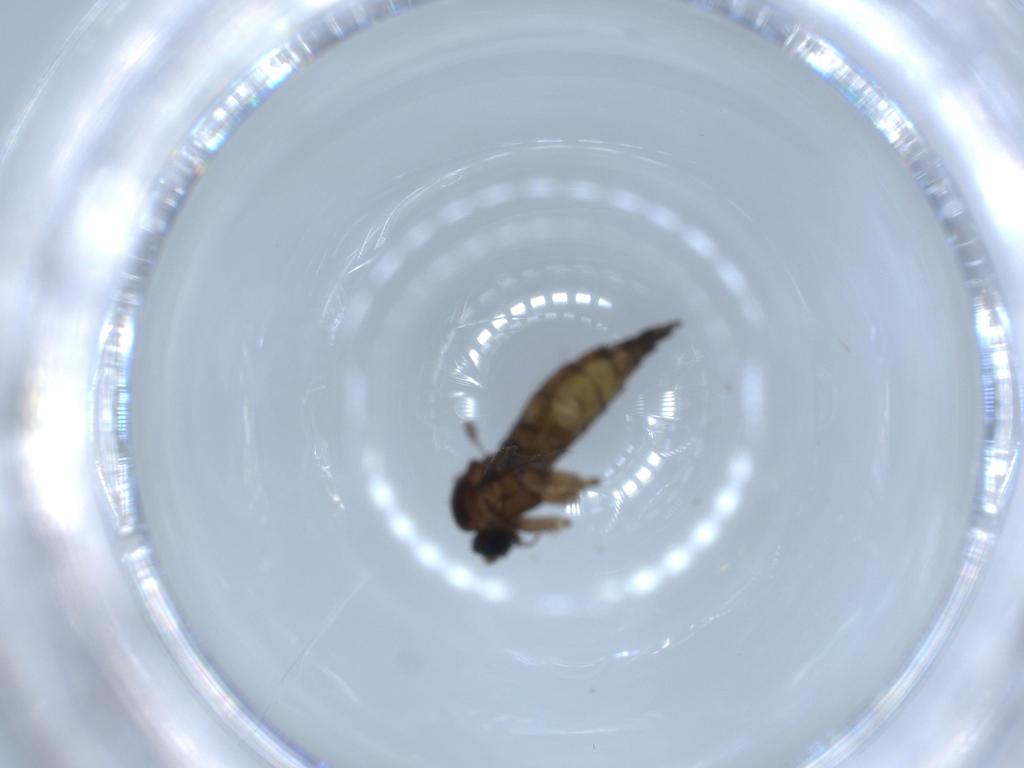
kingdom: Animalia
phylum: Arthropoda
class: Insecta
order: Diptera
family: Sciaridae
